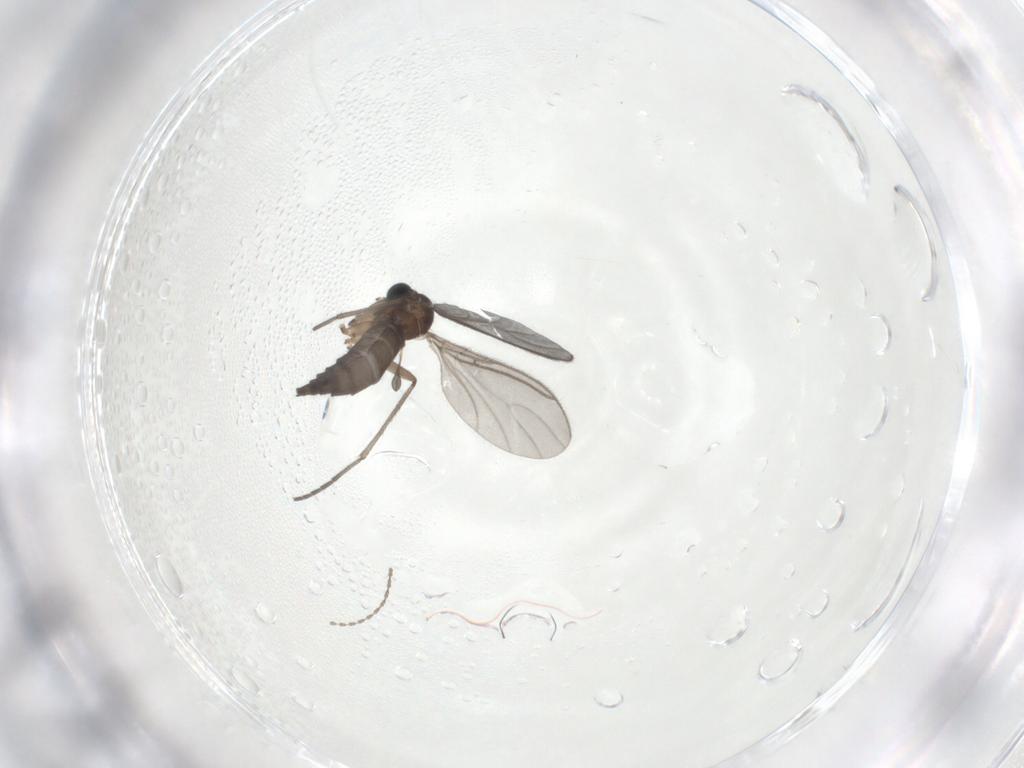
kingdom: Animalia
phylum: Arthropoda
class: Insecta
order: Diptera
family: Sciaridae
